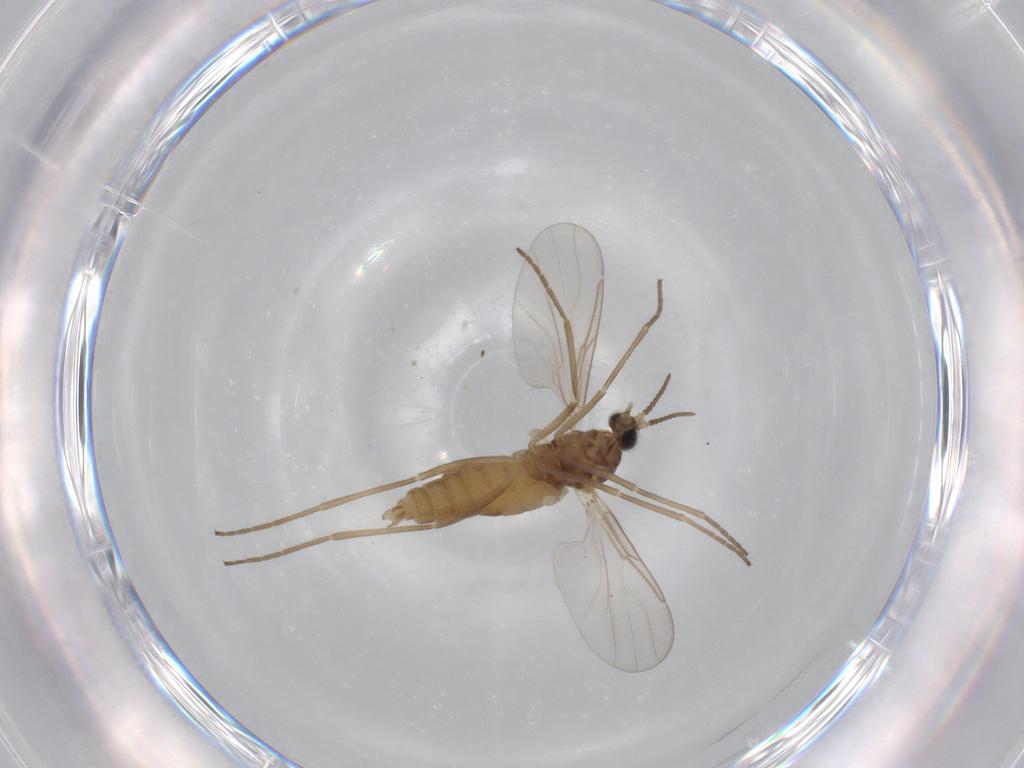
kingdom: Animalia
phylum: Arthropoda
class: Insecta
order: Diptera
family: Cecidomyiidae
